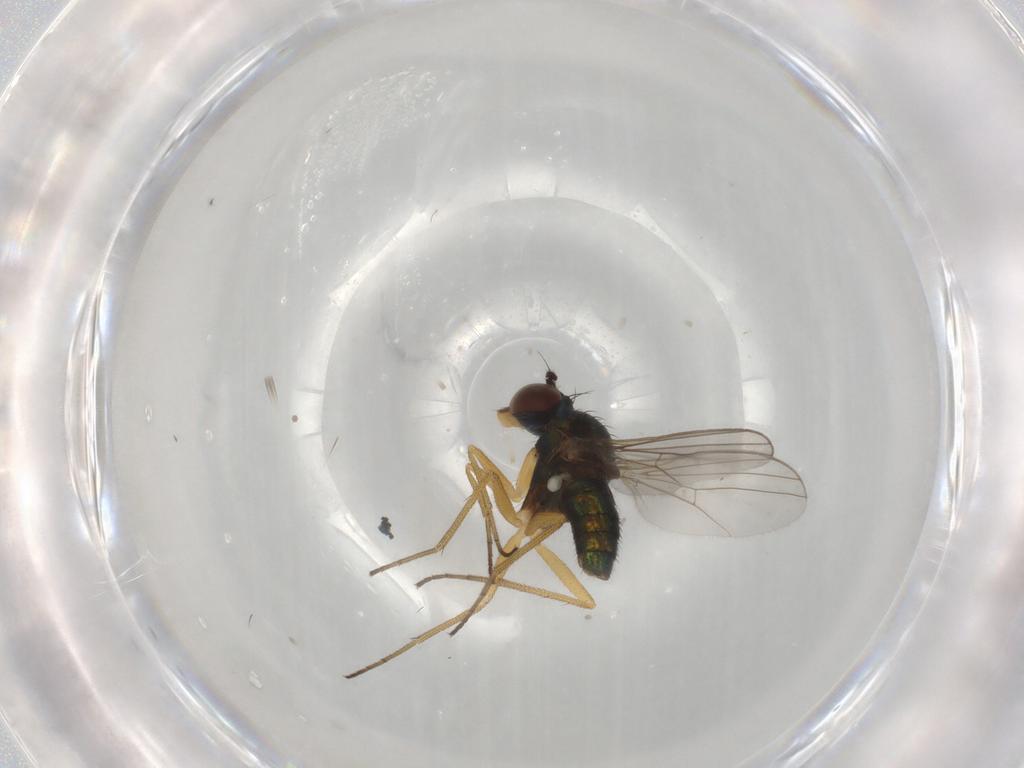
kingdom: Animalia
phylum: Arthropoda
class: Insecta
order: Diptera
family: Dolichopodidae
